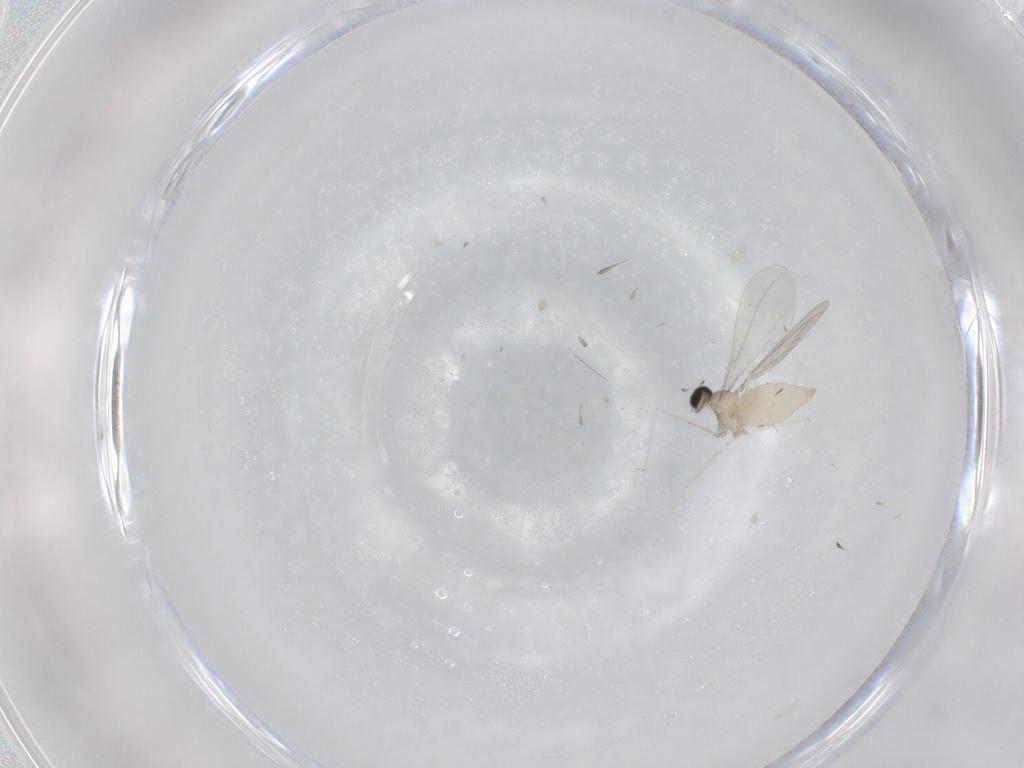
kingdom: Animalia
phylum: Arthropoda
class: Insecta
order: Diptera
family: Cecidomyiidae
